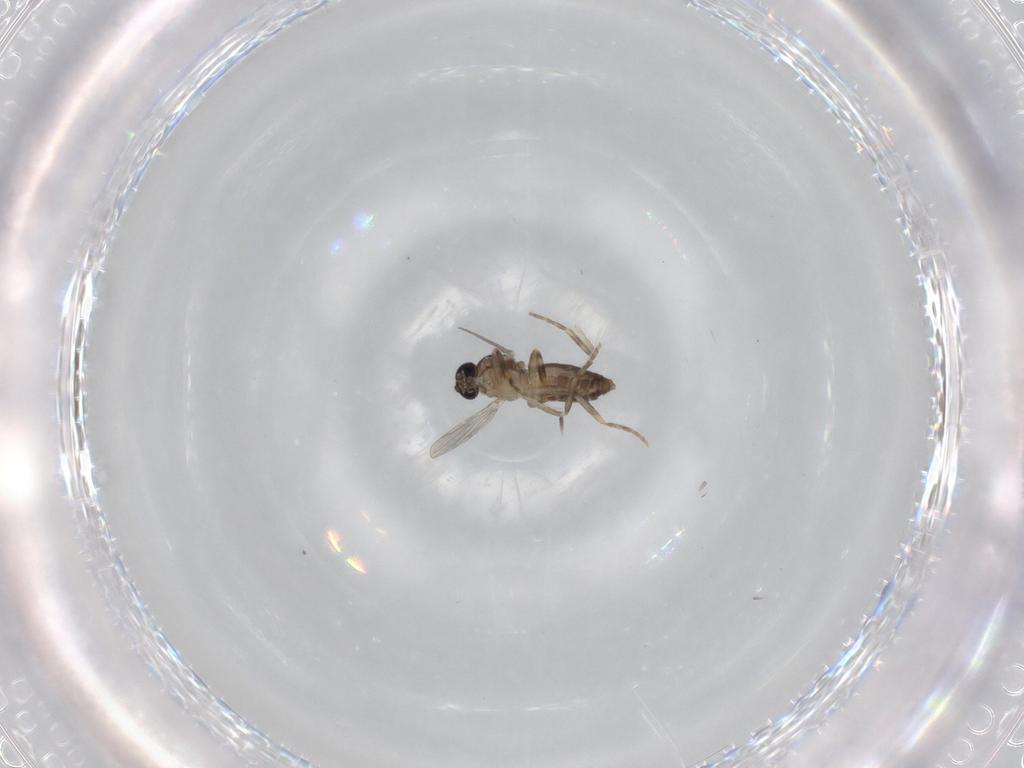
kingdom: Animalia
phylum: Arthropoda
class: Insecta
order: Diptera
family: Ceratopogonidae
